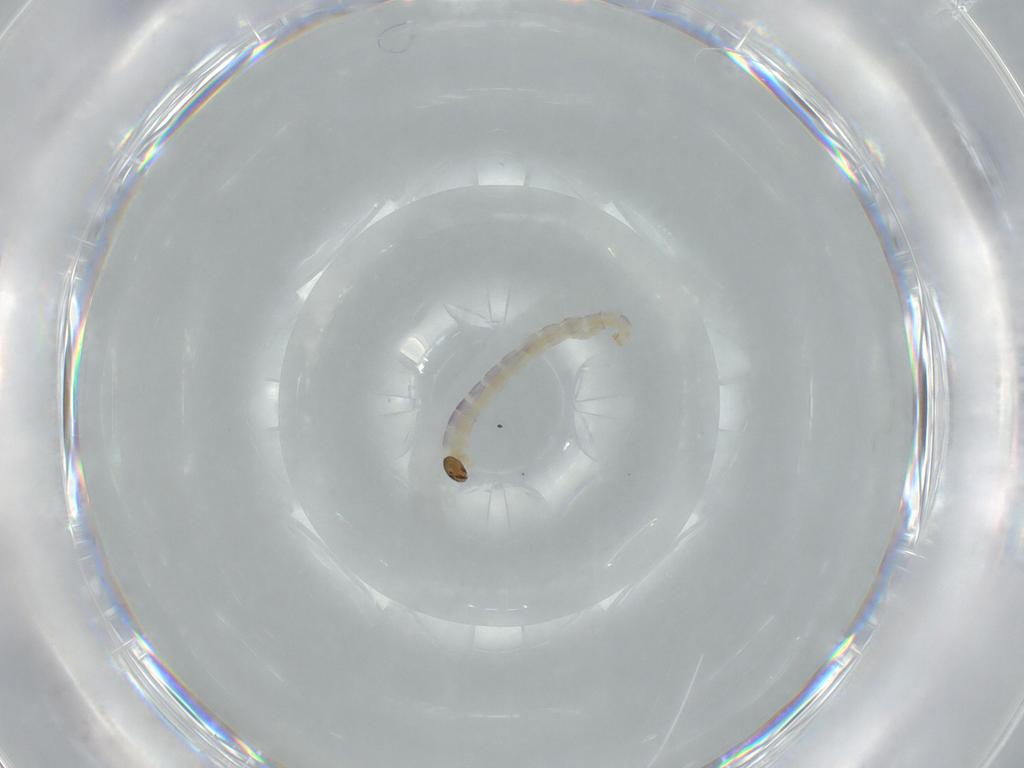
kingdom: Animalia
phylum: Arthropoda
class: Insecta
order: Diptera
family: Chironomidae
